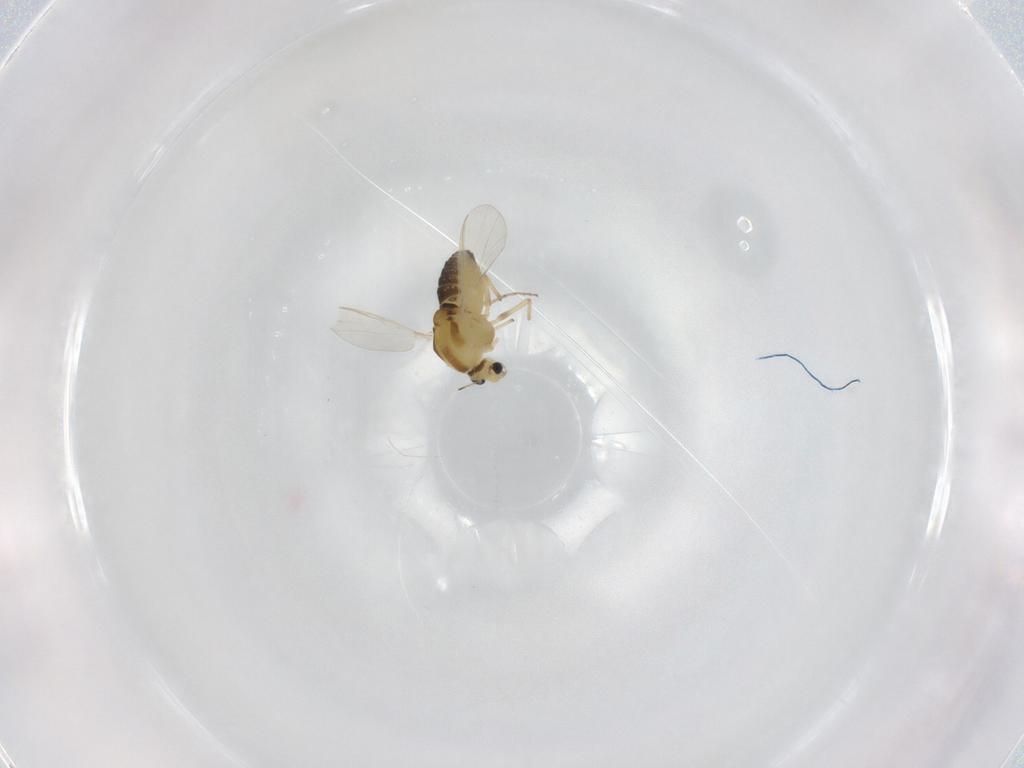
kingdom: Animalia
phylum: Arthropoda
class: Insecta
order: Diptera
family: Chironomidae
